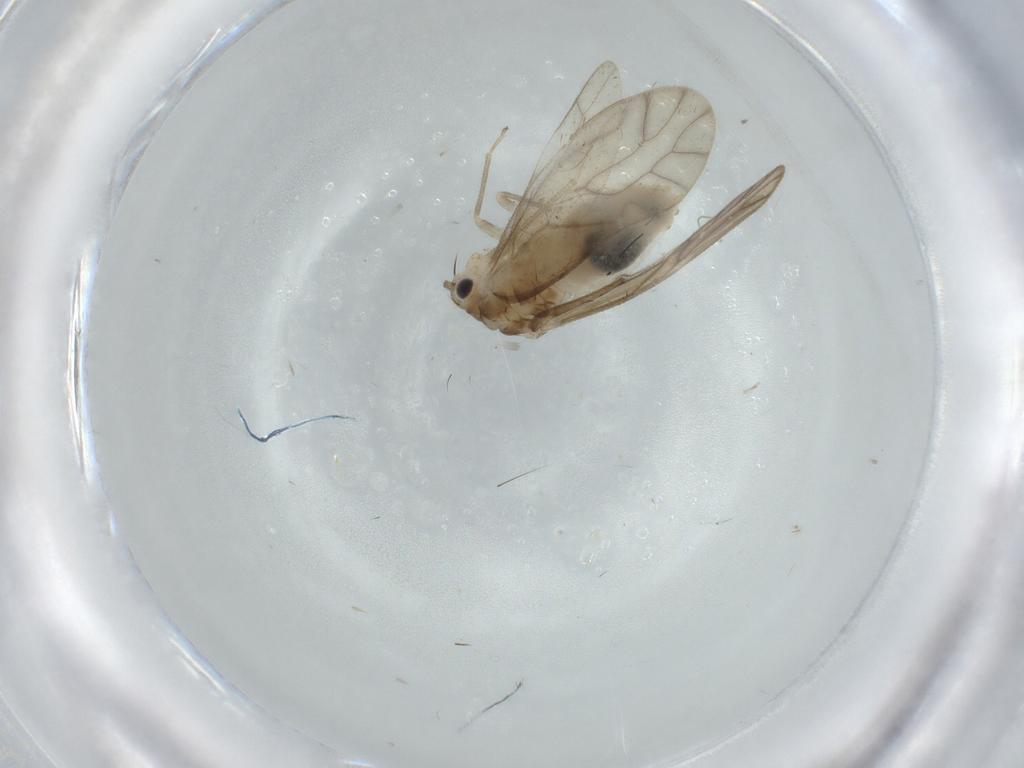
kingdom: Animalia
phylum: Arthropoda
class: Insecta
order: Psocodea
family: Caeciliusidae
